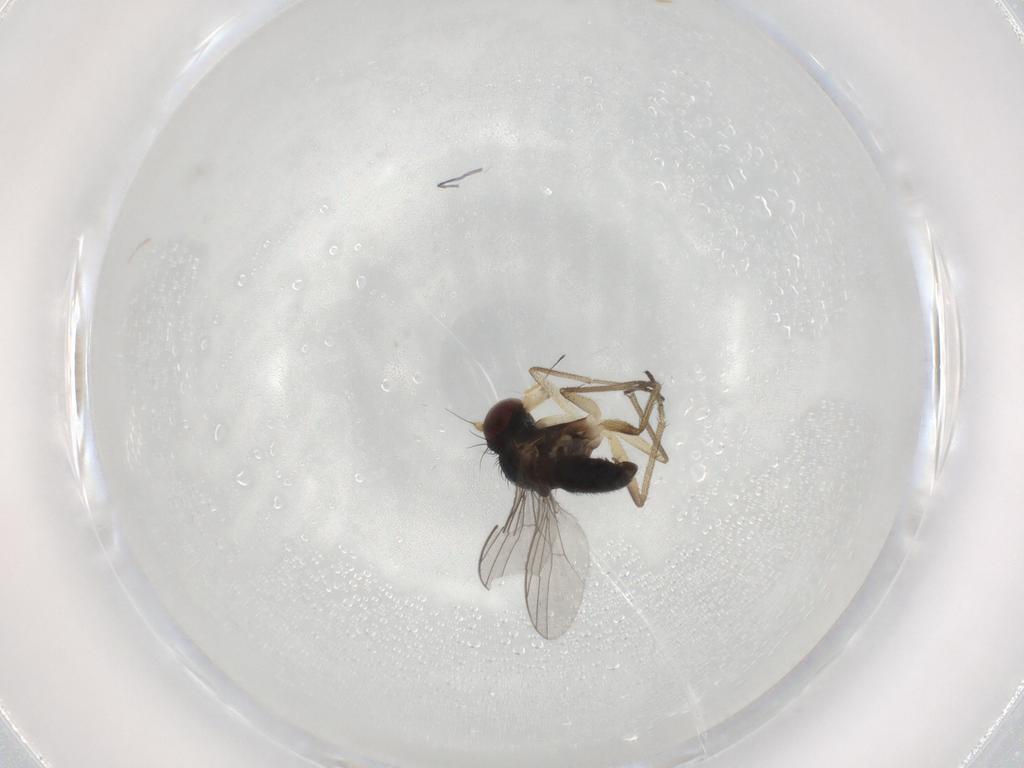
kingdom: Animalia
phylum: Arthropoda
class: Insecta
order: Diptera
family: Dolichopodidae
